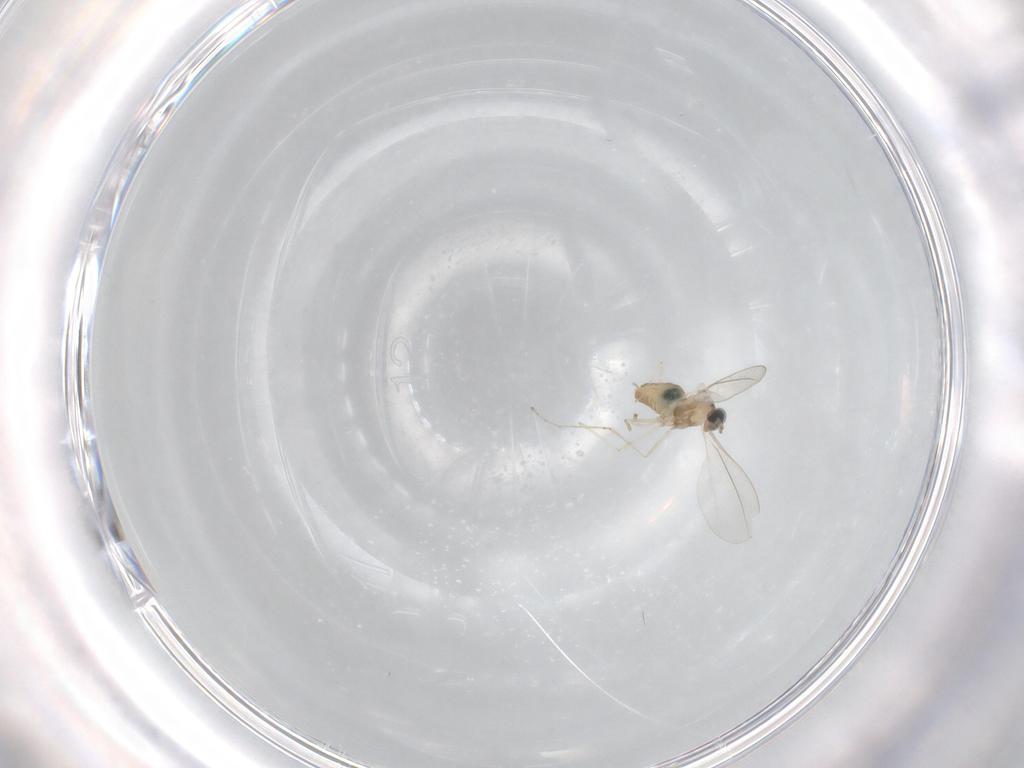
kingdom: Animalia
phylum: Arthropoda
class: Insecta
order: Diptera
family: Cecidomyiidae
